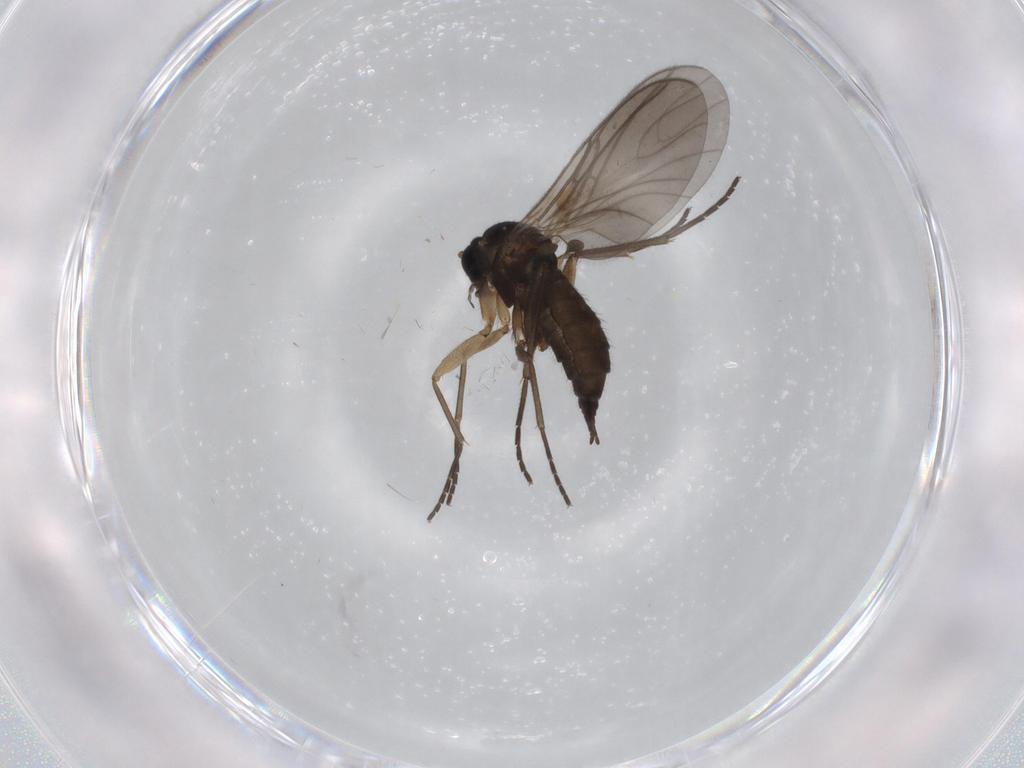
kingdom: Animalia
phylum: Arthropoda
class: Insecta
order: Diptera
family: Sciaridae
